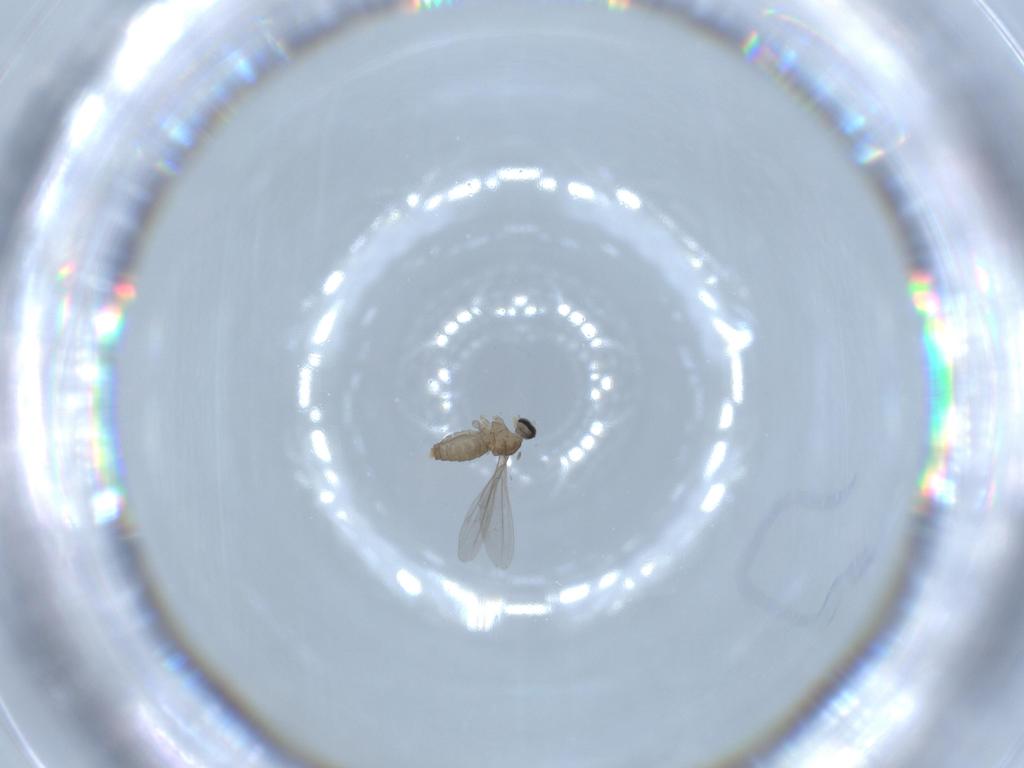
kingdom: Animalia
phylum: Arthropoda
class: Insecta
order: Diptera
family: Cecidomyiidae
